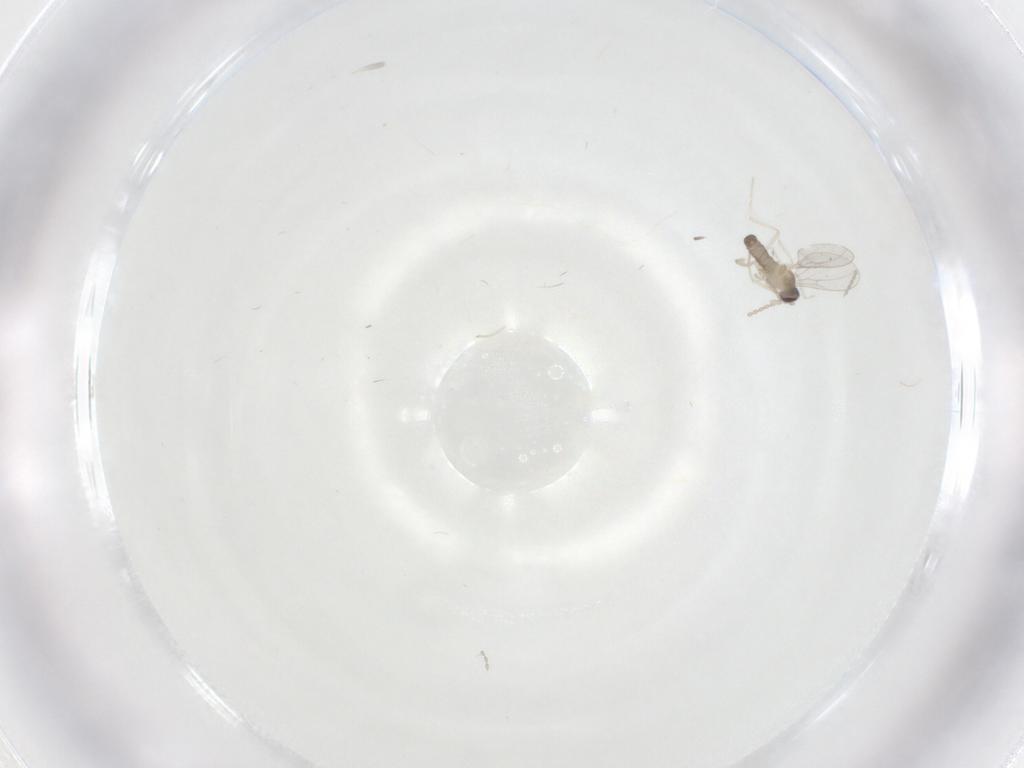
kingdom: Animalia
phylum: Arthropoda
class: Insecta
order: Diptera
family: Cecidomyiidae
